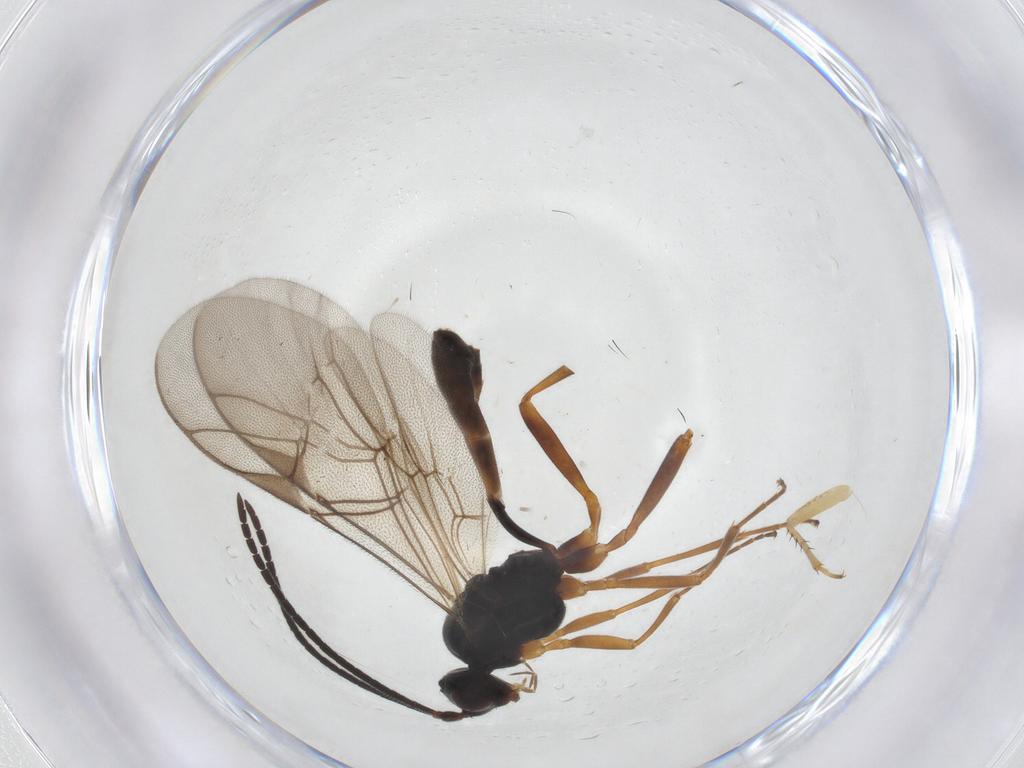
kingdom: Animalia
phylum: Arthropoda
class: Insecta
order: Hymenoptera
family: Ichneumonidae
